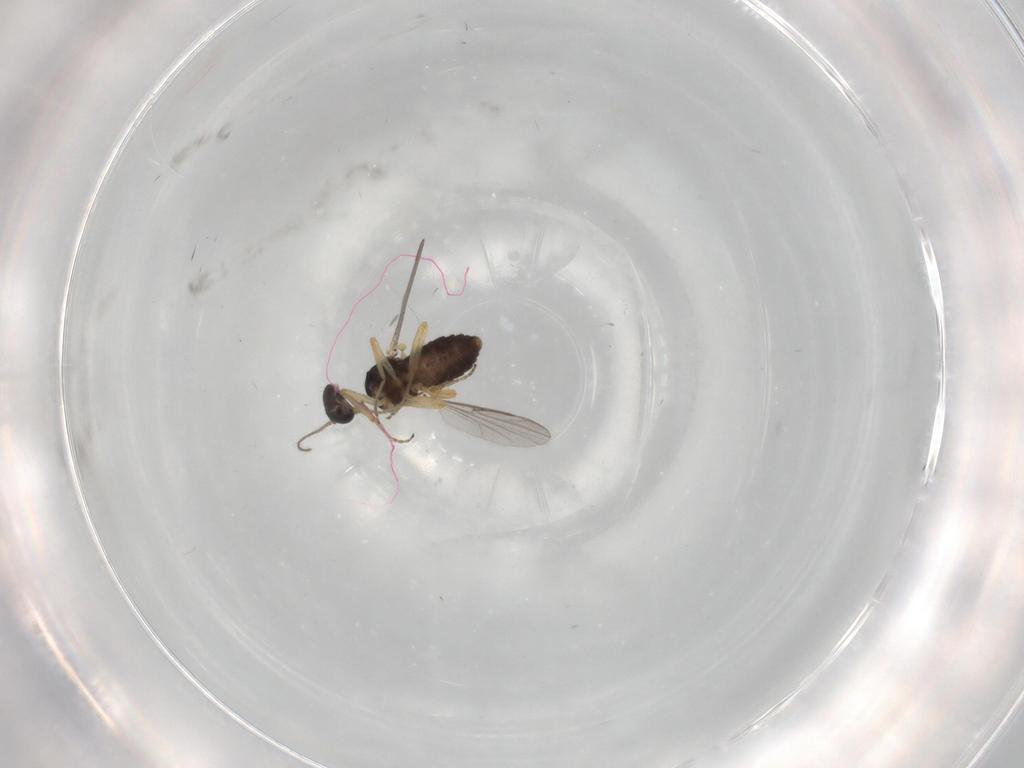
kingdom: Animalia
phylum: Arthropoda
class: Insecta
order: Diptera
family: Ceratopogonidae
